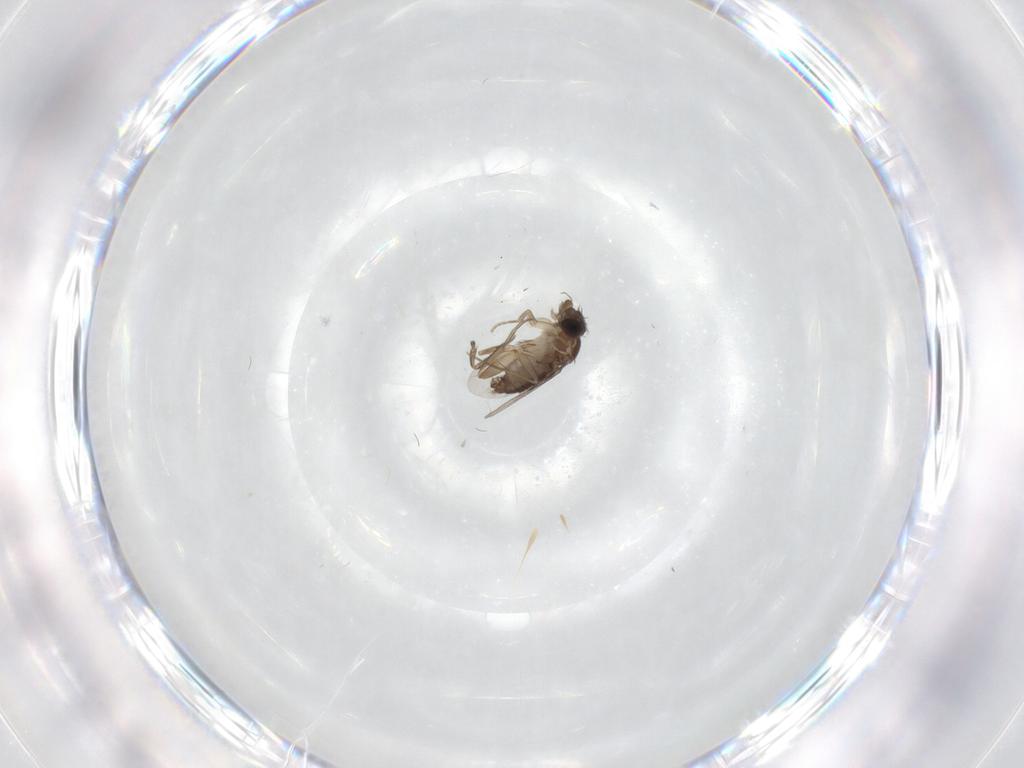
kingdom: Animalia
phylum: Arthropoda
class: Insecta
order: Diptera
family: Phoridae
